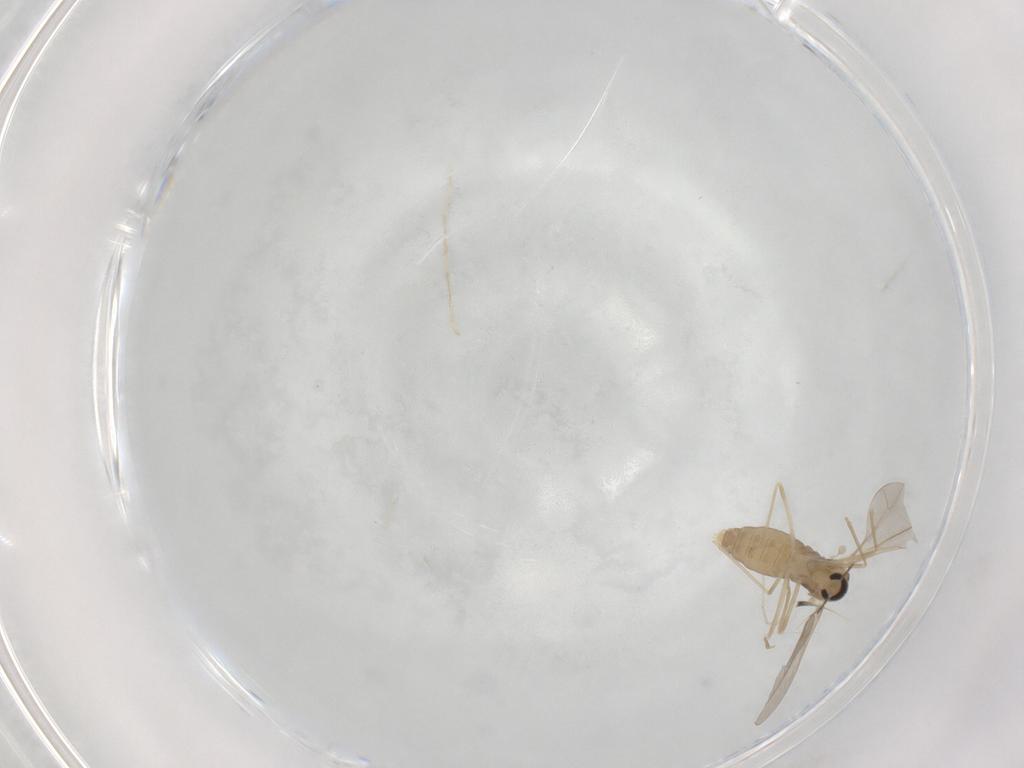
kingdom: Animalia
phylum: Arthropoda
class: Insecta
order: Diptera
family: Cecidomyiidae
